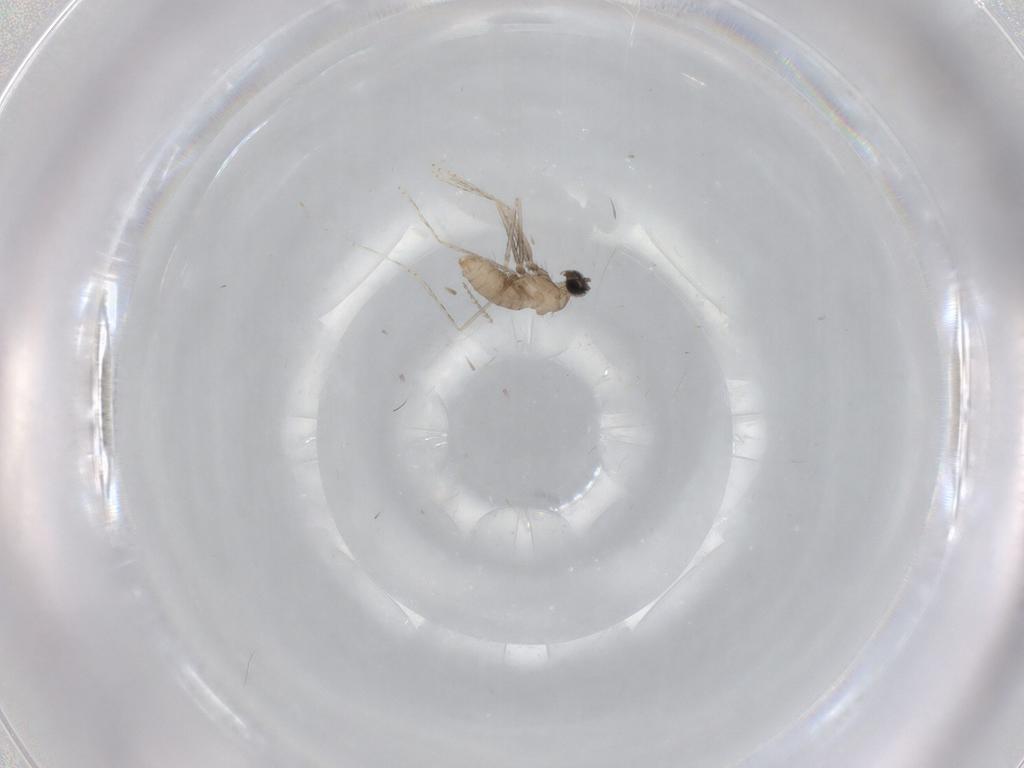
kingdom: Animalia
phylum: Arthropoda
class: Insecta
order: Diptera
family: Cecidomyiidae
